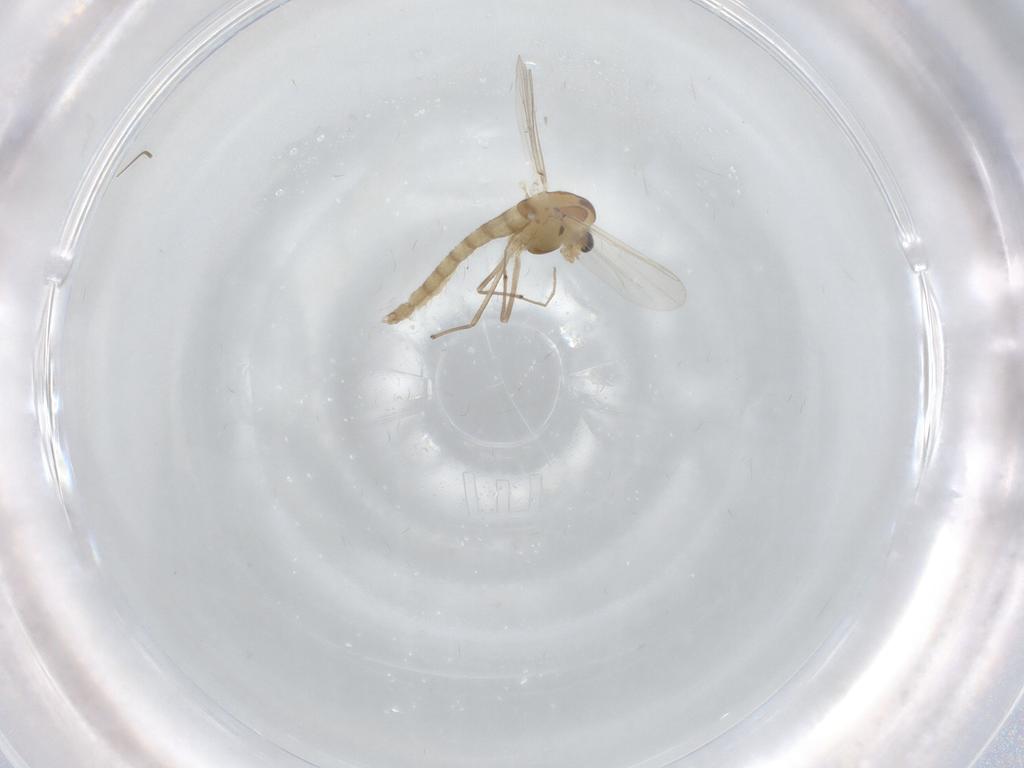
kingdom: Animalia
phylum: Arthropoda
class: Insecta
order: Diptera
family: Chironomidae
